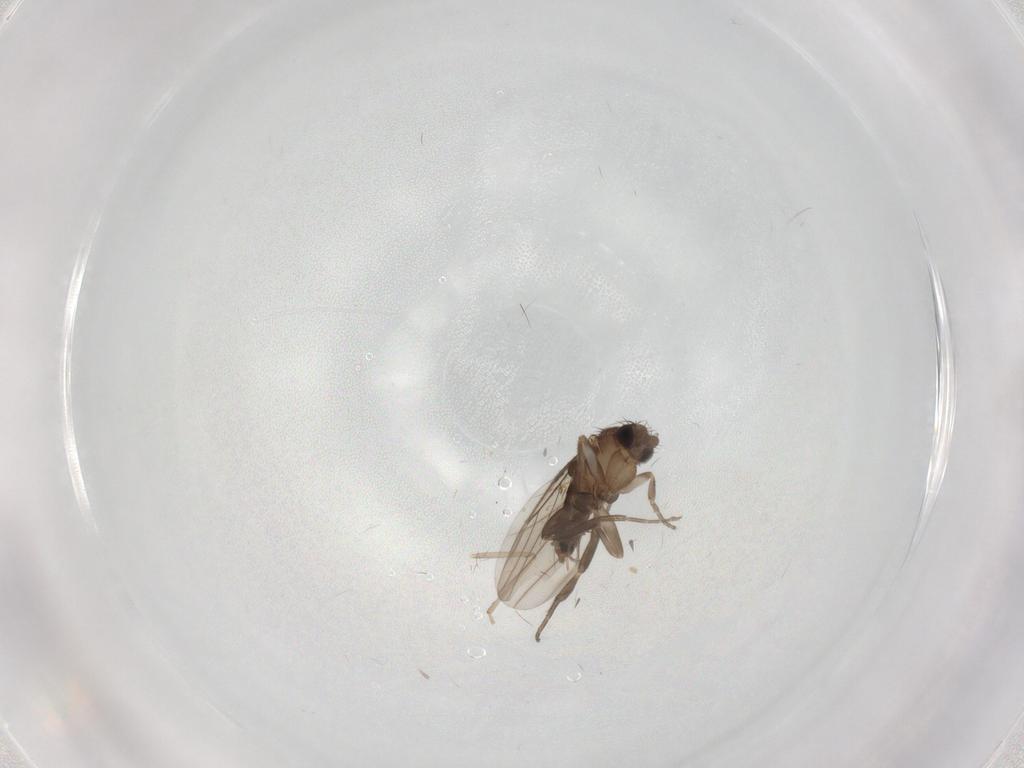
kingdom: Animalia
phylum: Arthropoda
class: Insecta
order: Diptera
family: Phoridae
